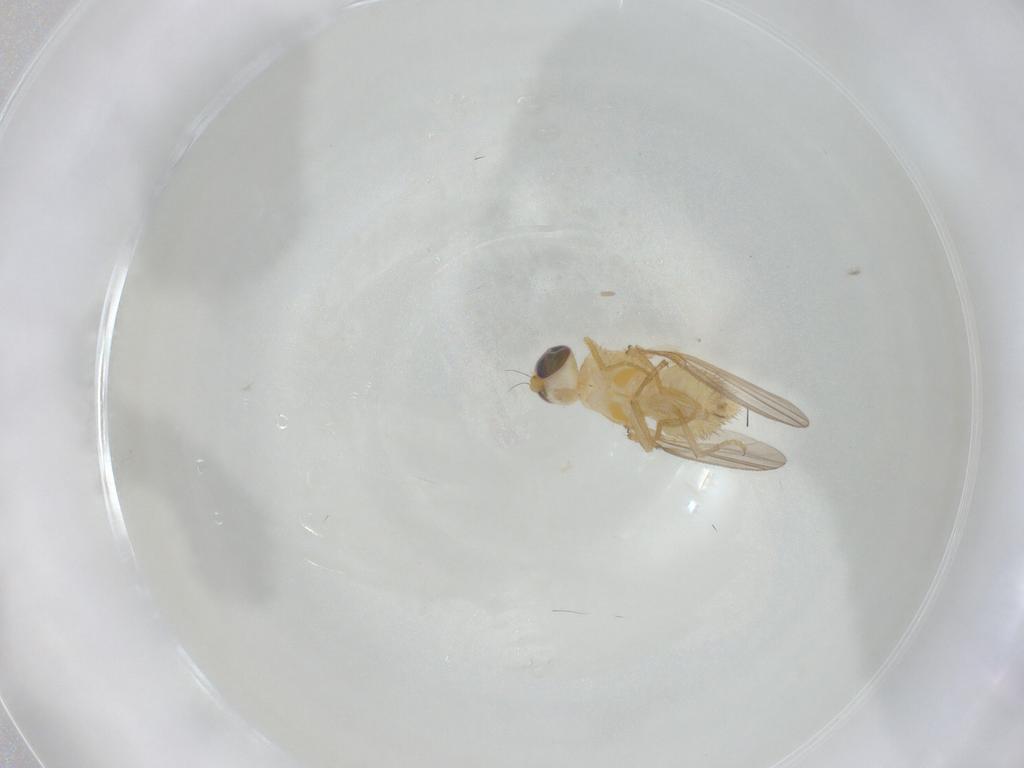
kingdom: Animalia
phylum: Arthropoda
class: Insecta
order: Diptera
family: Chyromyidae
